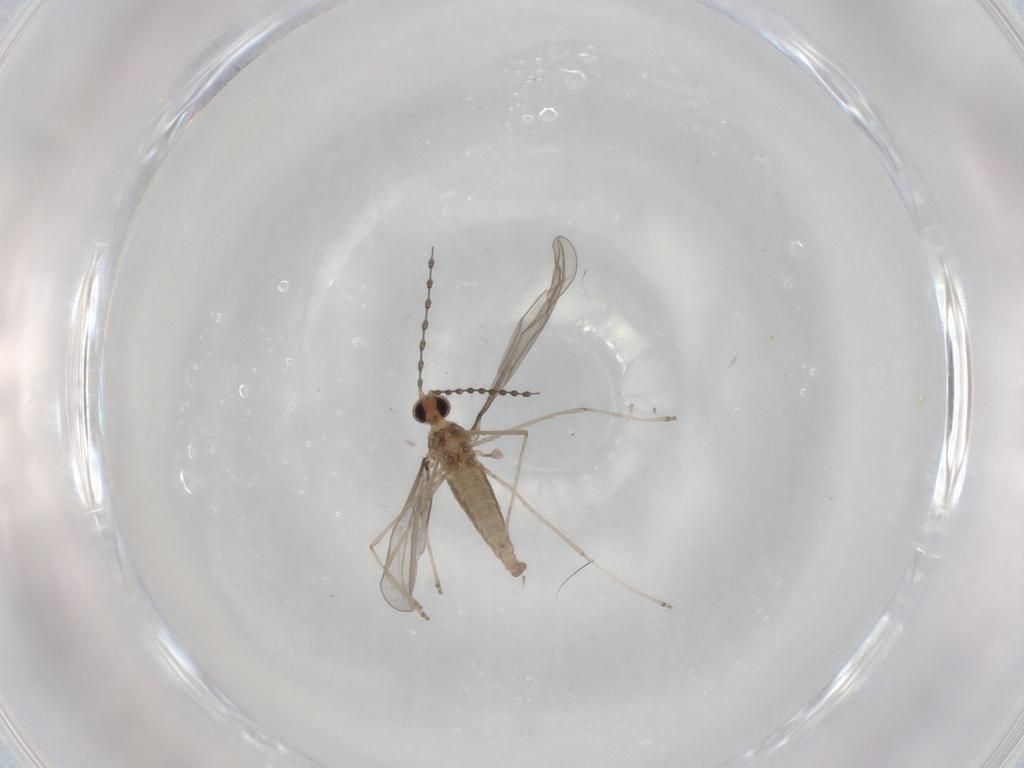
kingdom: Animalia
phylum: Arthropoda
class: Insecta
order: Diptera
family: Cecidomyiidae
